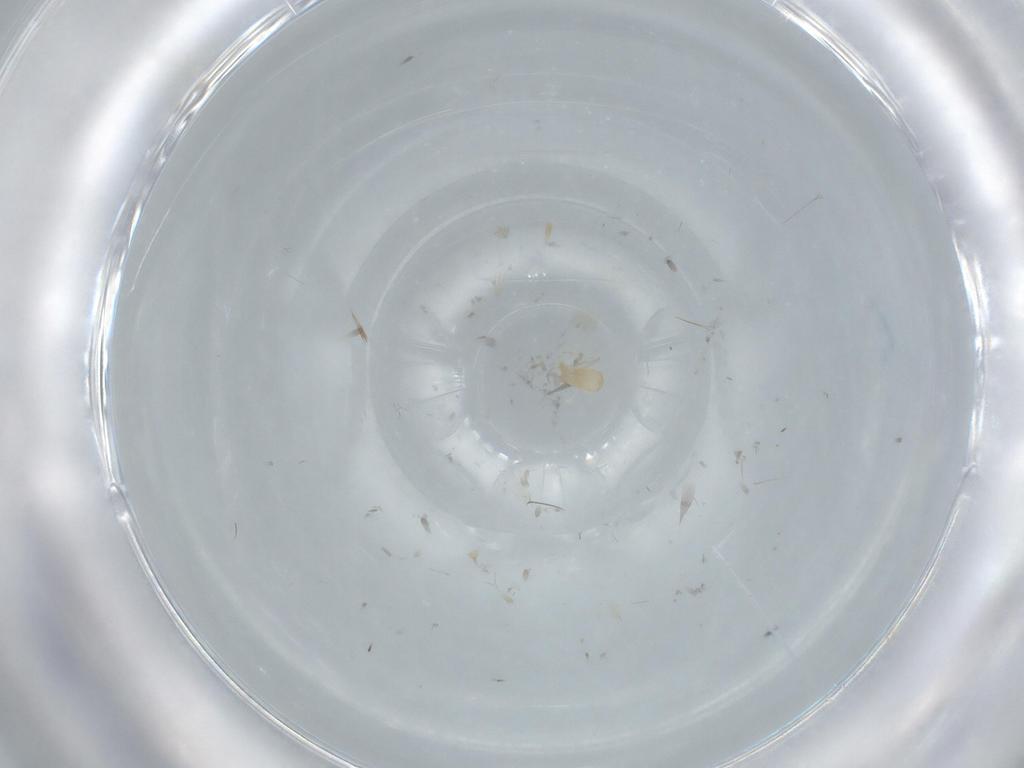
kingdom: Animalia
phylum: Arthropoda
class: Insecta
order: Diptera
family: Cecidomyiidae
